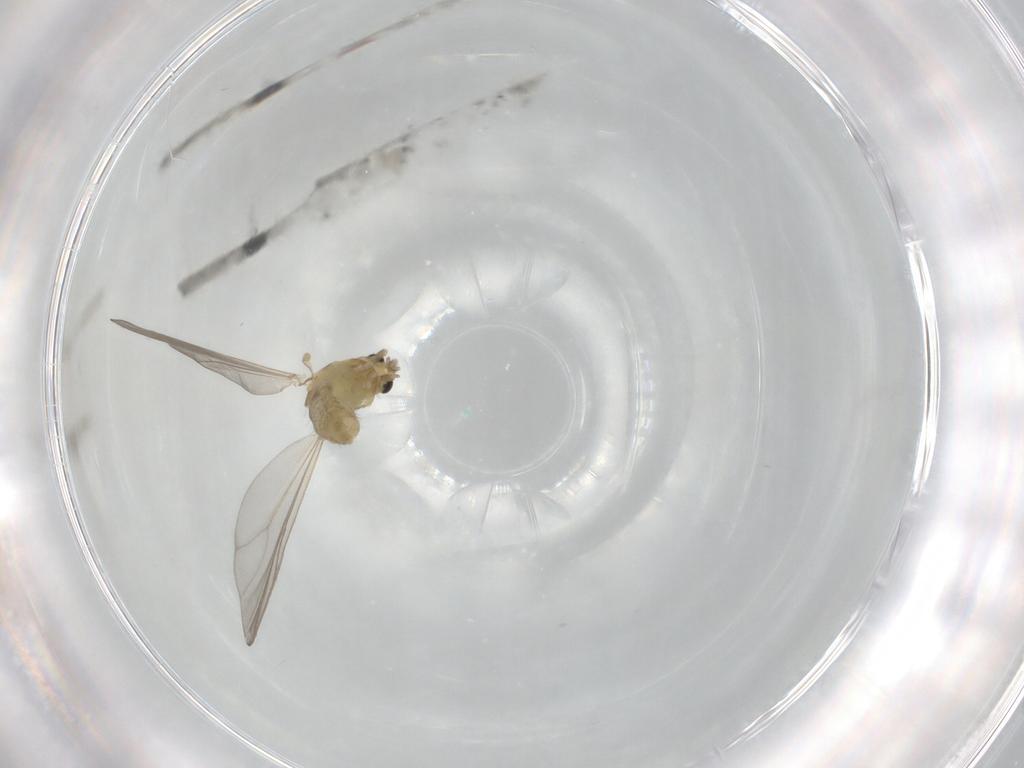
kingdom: Animalia
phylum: Arthropoda
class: Insecta
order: Diptera
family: Chironomidae
